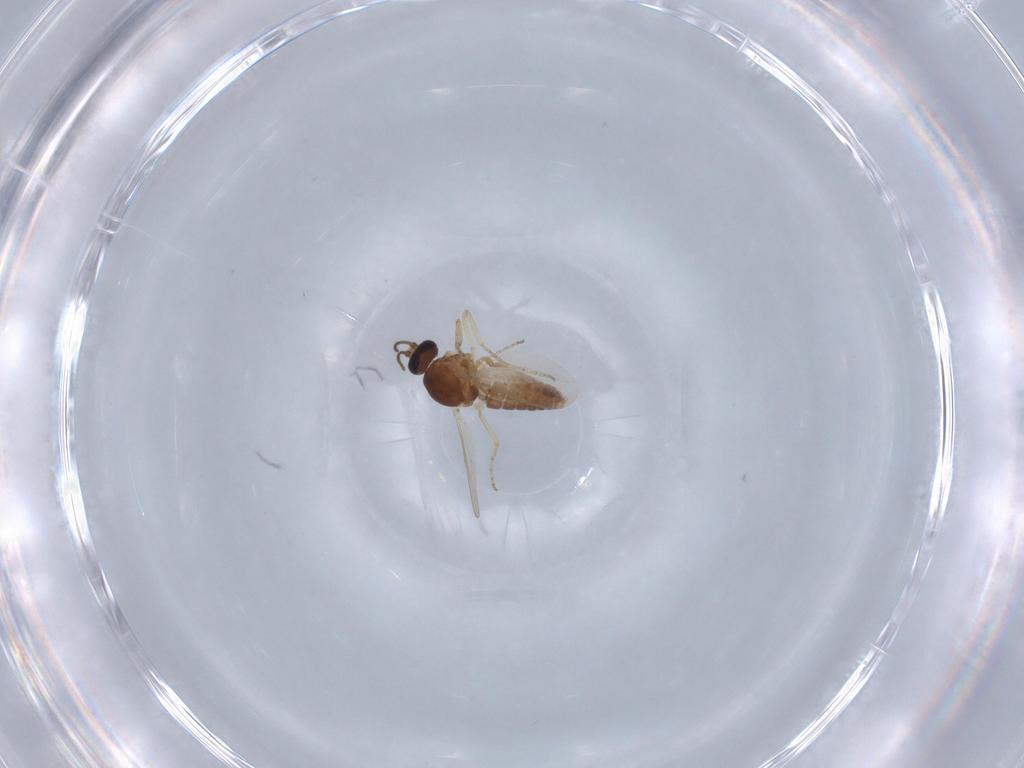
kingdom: Animalia
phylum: Arthropoda
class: Insecta
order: Diptera
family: Ceratopogonidae
